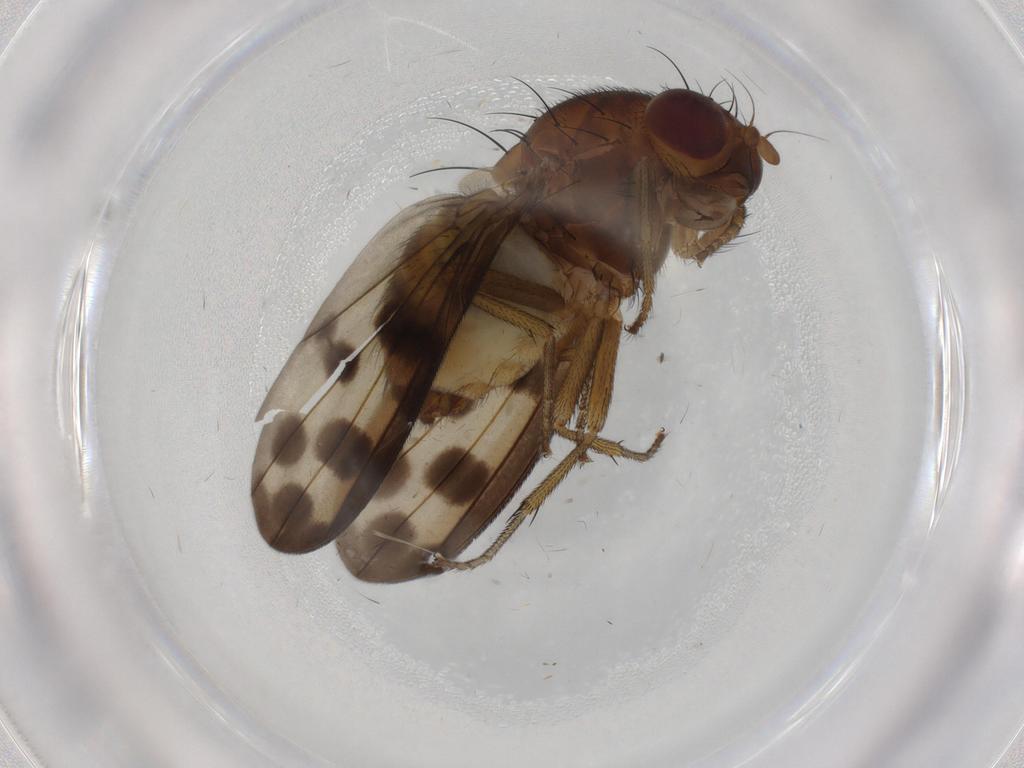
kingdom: Animalia
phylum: Arthropoda
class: Insecta
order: Diptera
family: Lauxaniidae
